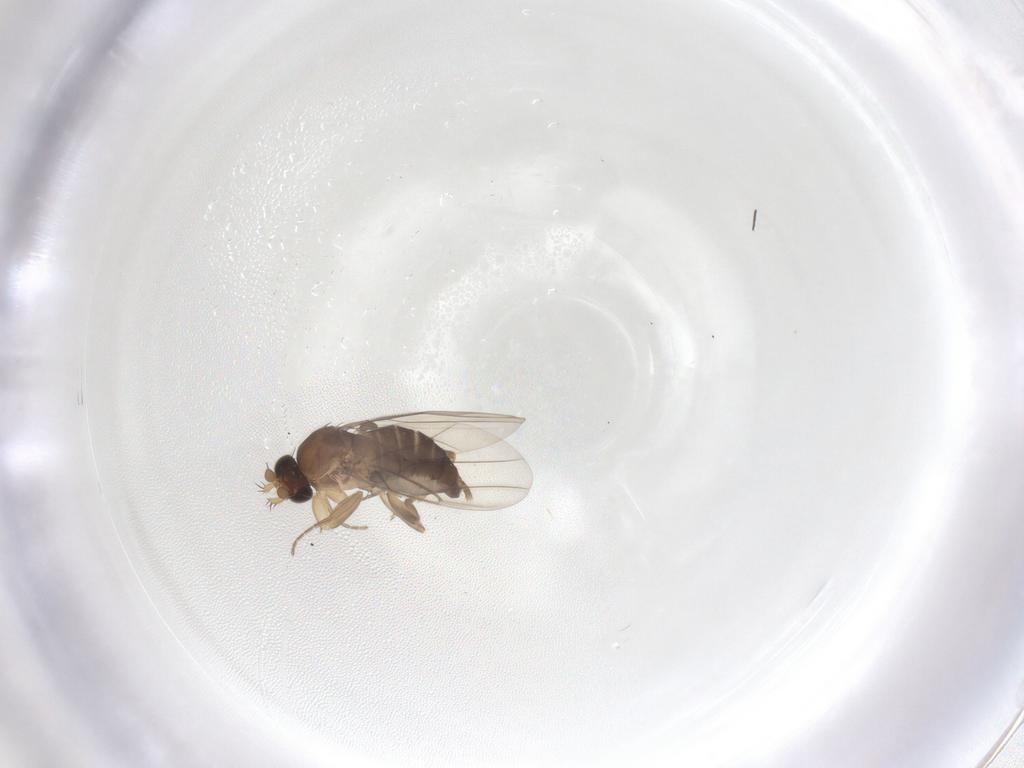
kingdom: Animalia
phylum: Arthropoda
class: Insecta
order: Diptera
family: Phoridae
